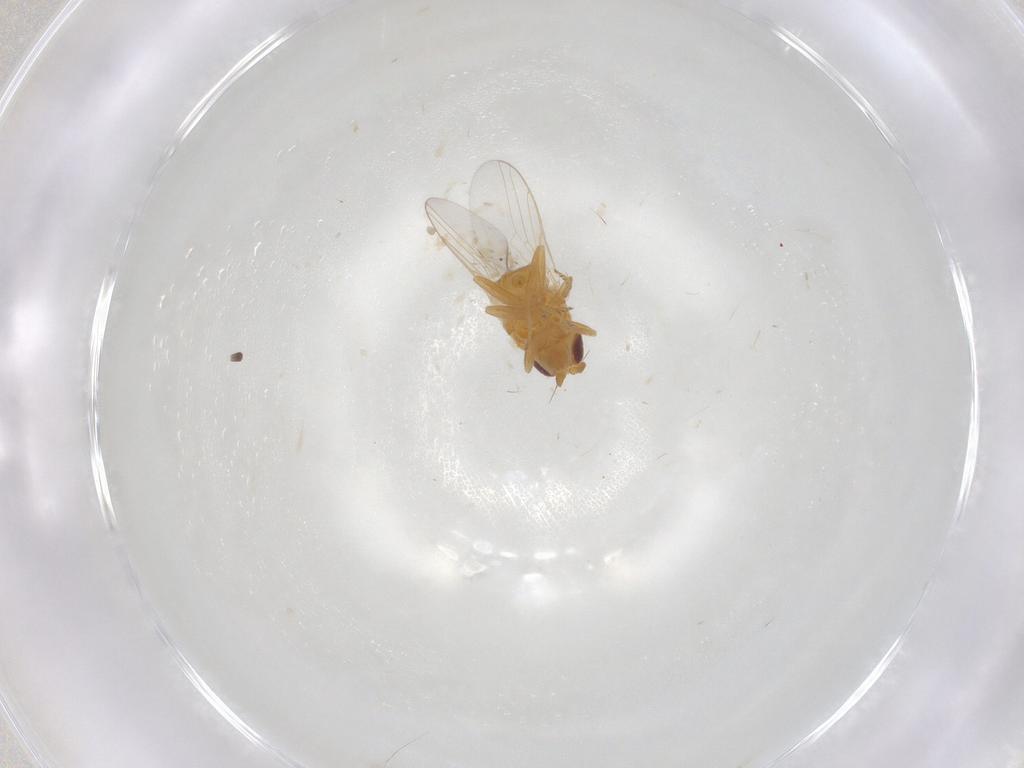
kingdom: Animalia
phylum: Arthropoda
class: Insecta
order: Diptera
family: Chloropidae
